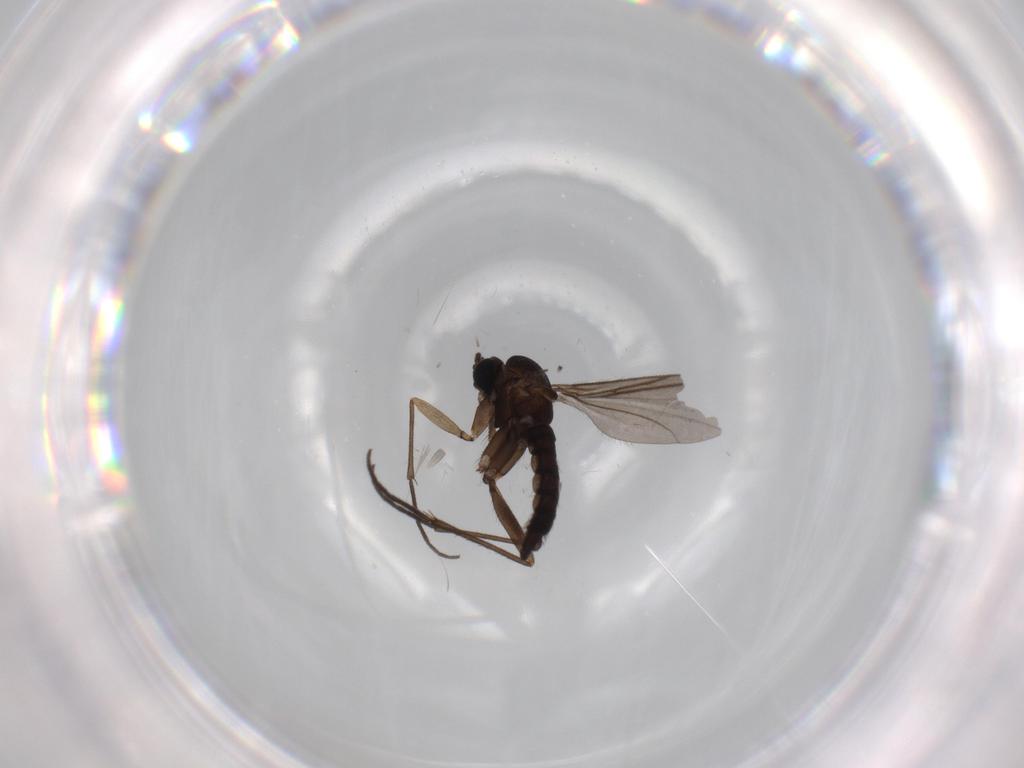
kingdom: Animalia
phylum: Arthropoda
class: Insecta
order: Diptera
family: Sciaridae
